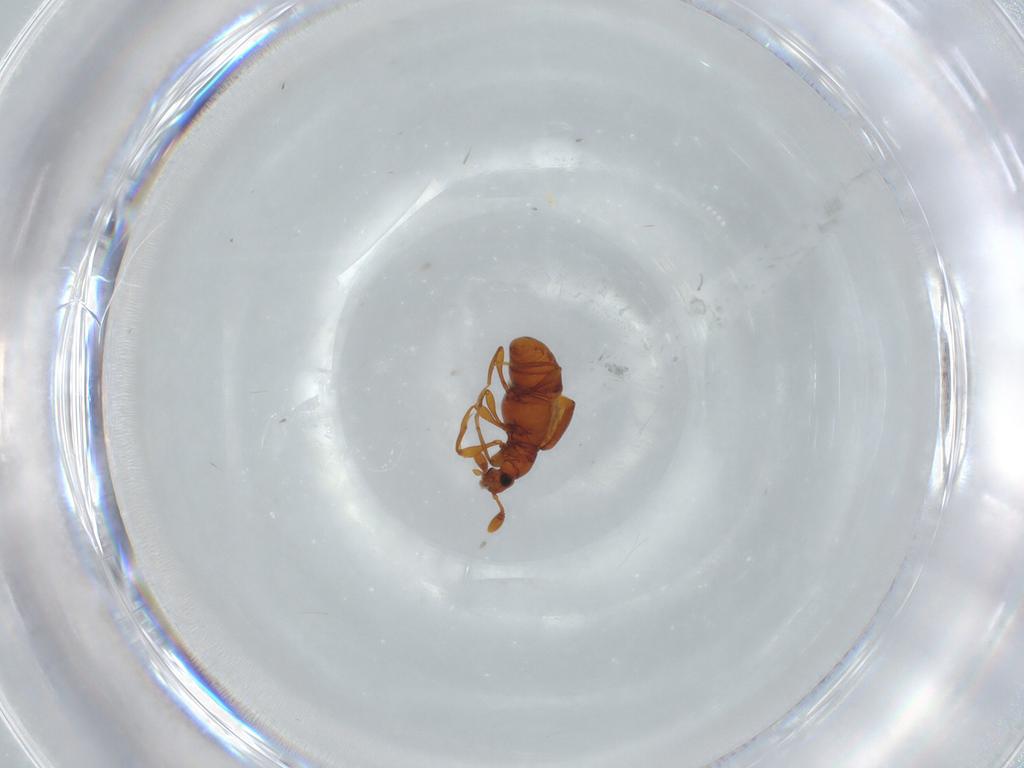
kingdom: Animalia
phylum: Arthropoda
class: Insecta
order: Coleoptera
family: Staphylinidae
